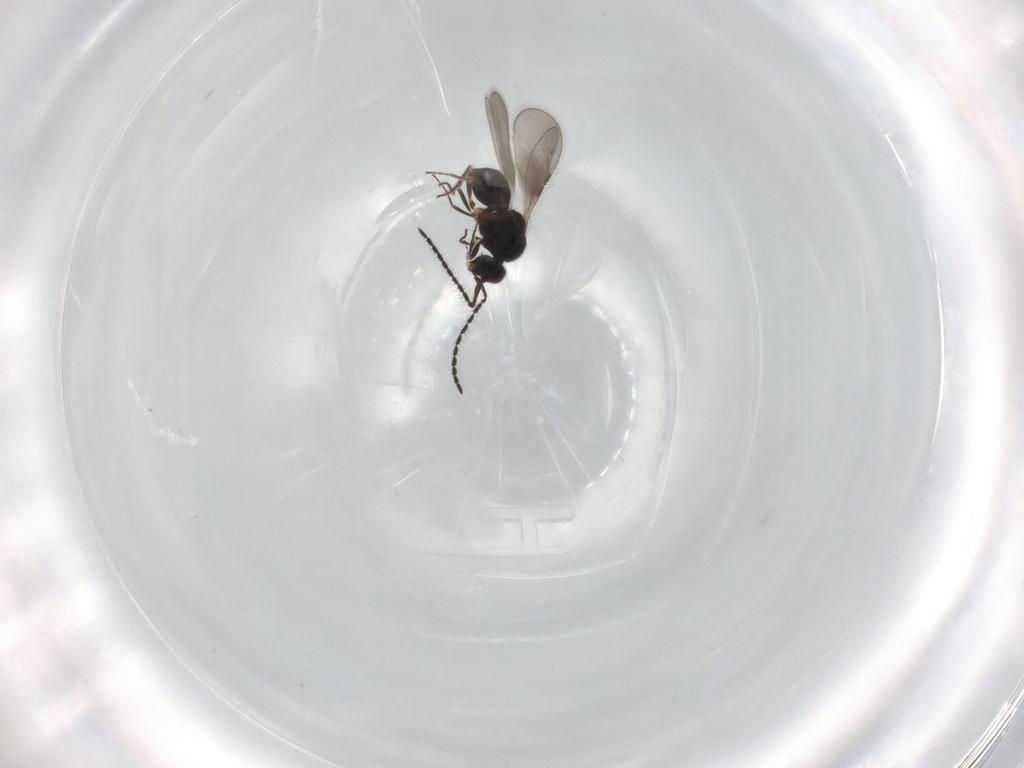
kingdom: Animalia
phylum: Arthropoda
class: Insecta
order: Hymenoptera
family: Ceraphronidae
